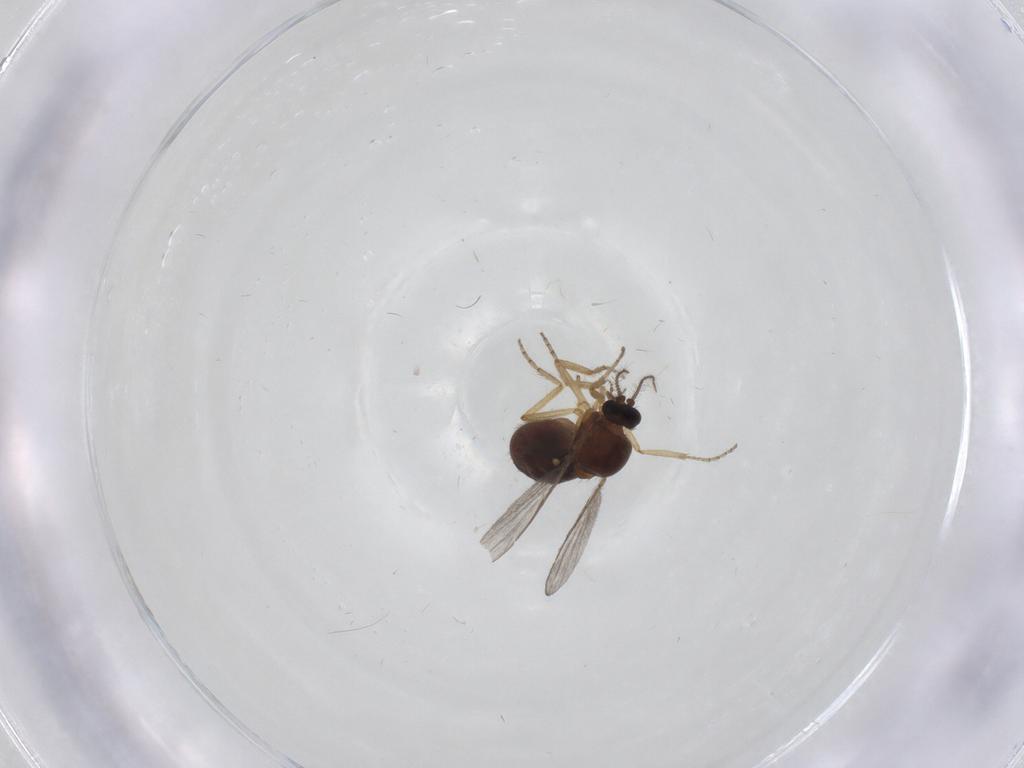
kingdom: Animalia
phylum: Arthropoda
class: Insecta
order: Diptera
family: Ceratopogonidae
